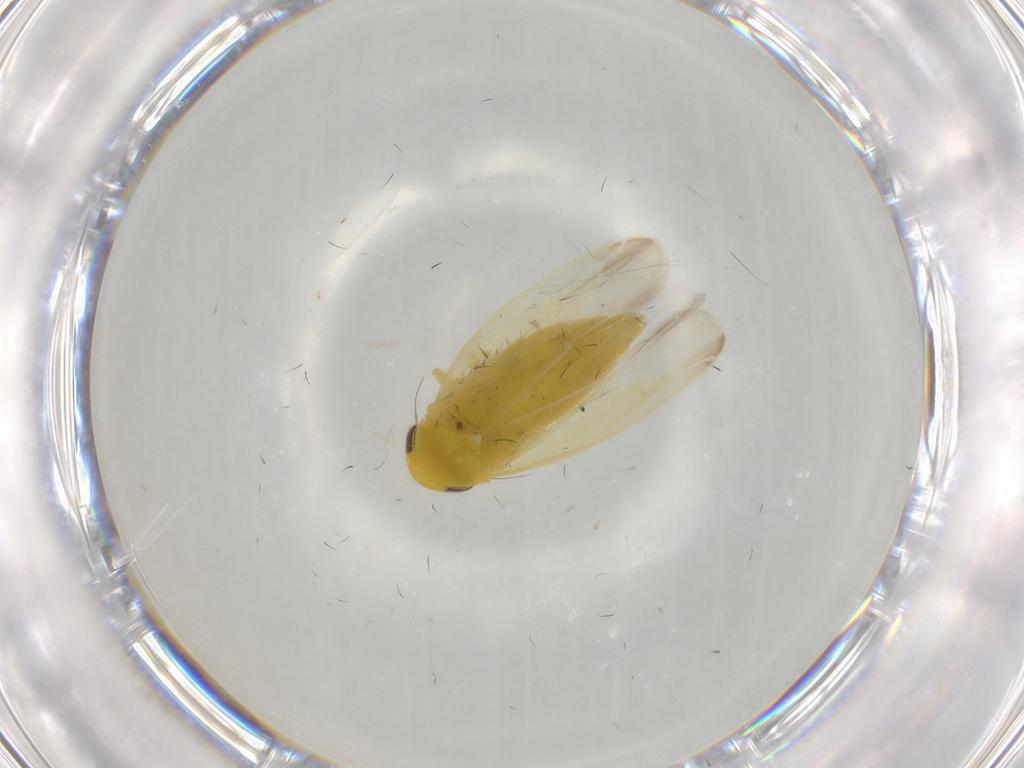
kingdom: Animalia
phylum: Arthropoda
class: Insecta
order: Hemiptera
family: Cicadellidae
